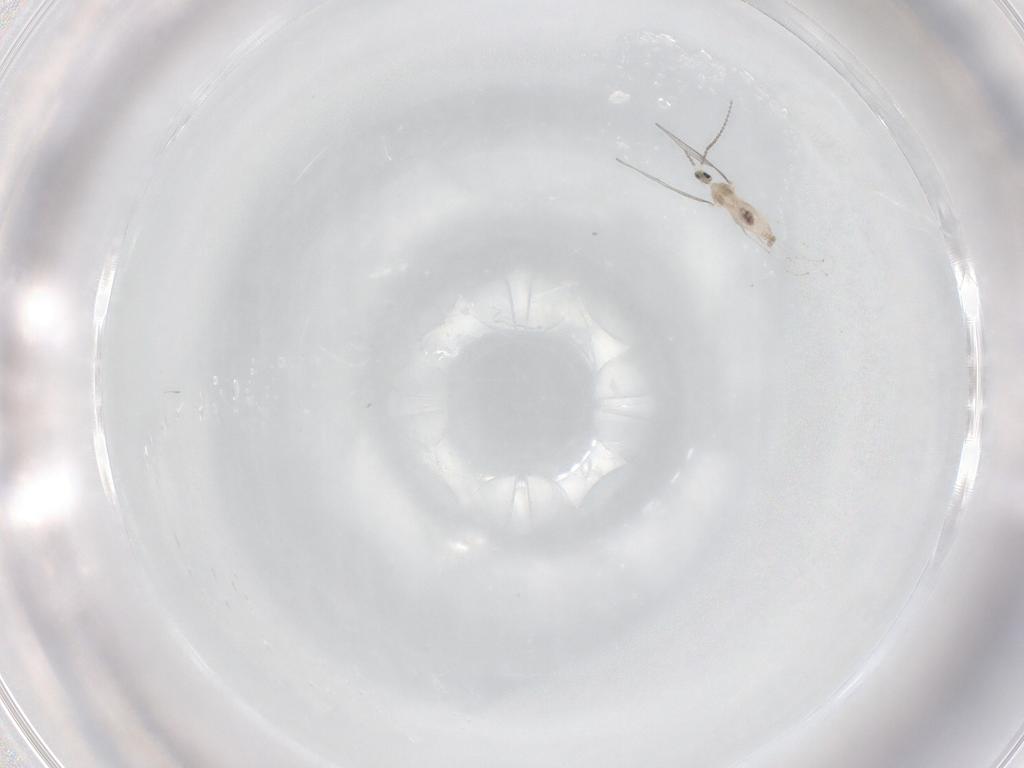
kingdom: Animalia
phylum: Arthropoda
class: Insecta
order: Diptera
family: Cecidomyiidae
